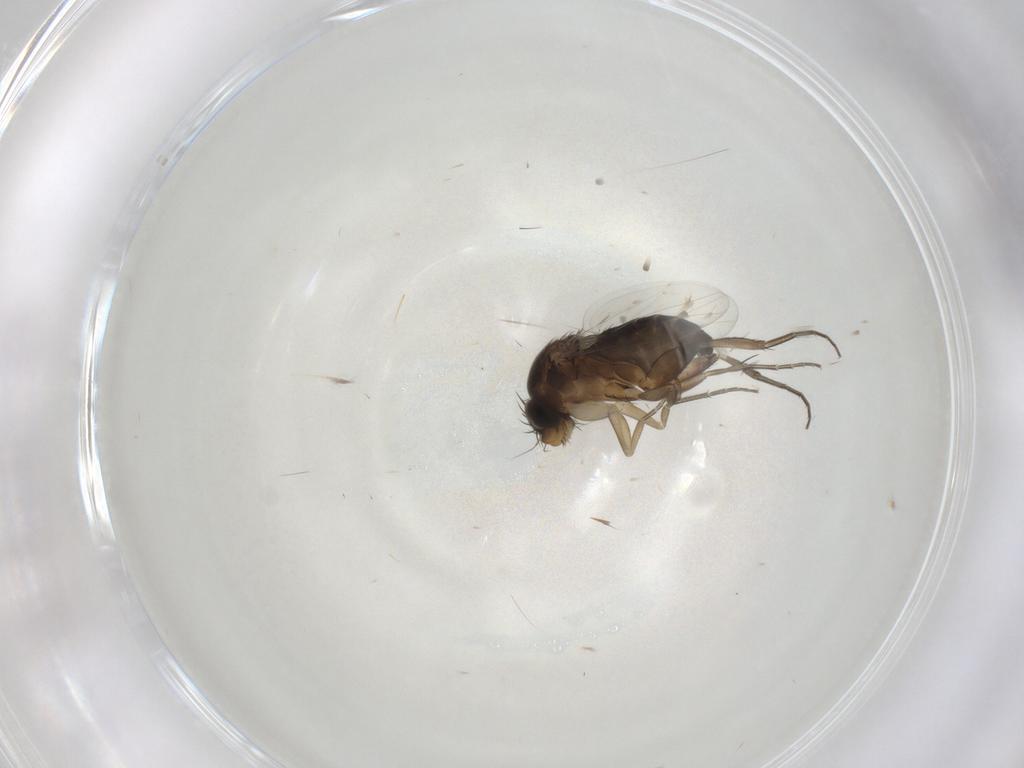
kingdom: Animalia
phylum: Arthropoda
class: Insecta
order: Diptera
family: Phoridae
